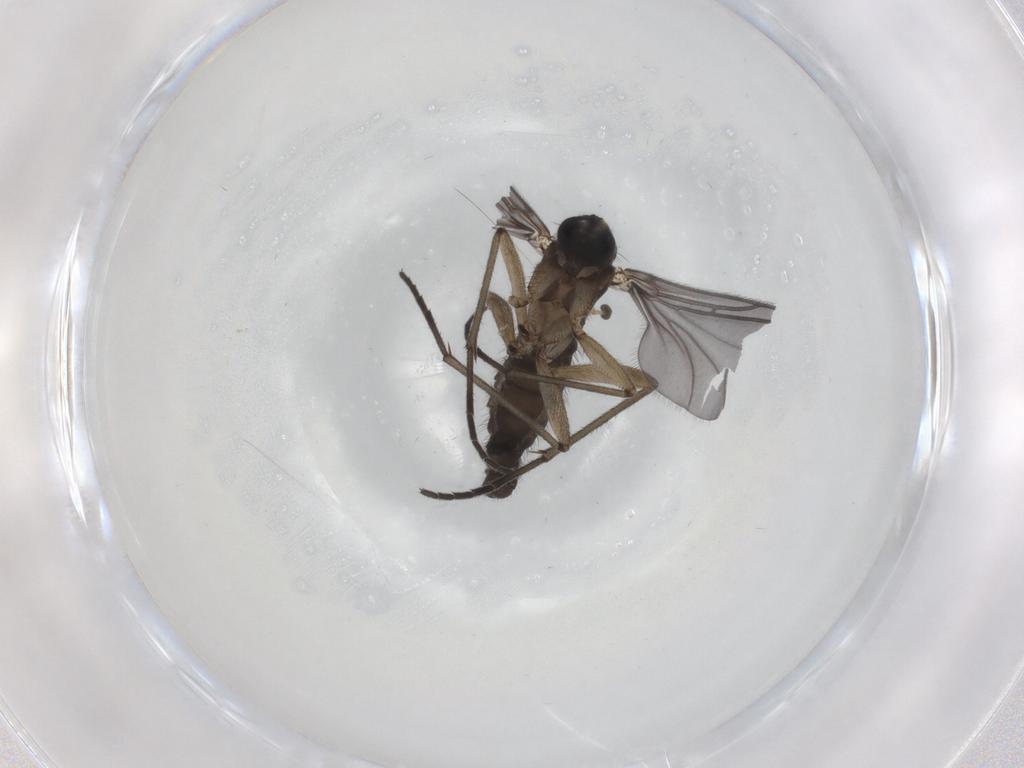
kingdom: Animalia
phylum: Arthropoda
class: Insecta
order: Diptera
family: Sciaridae
